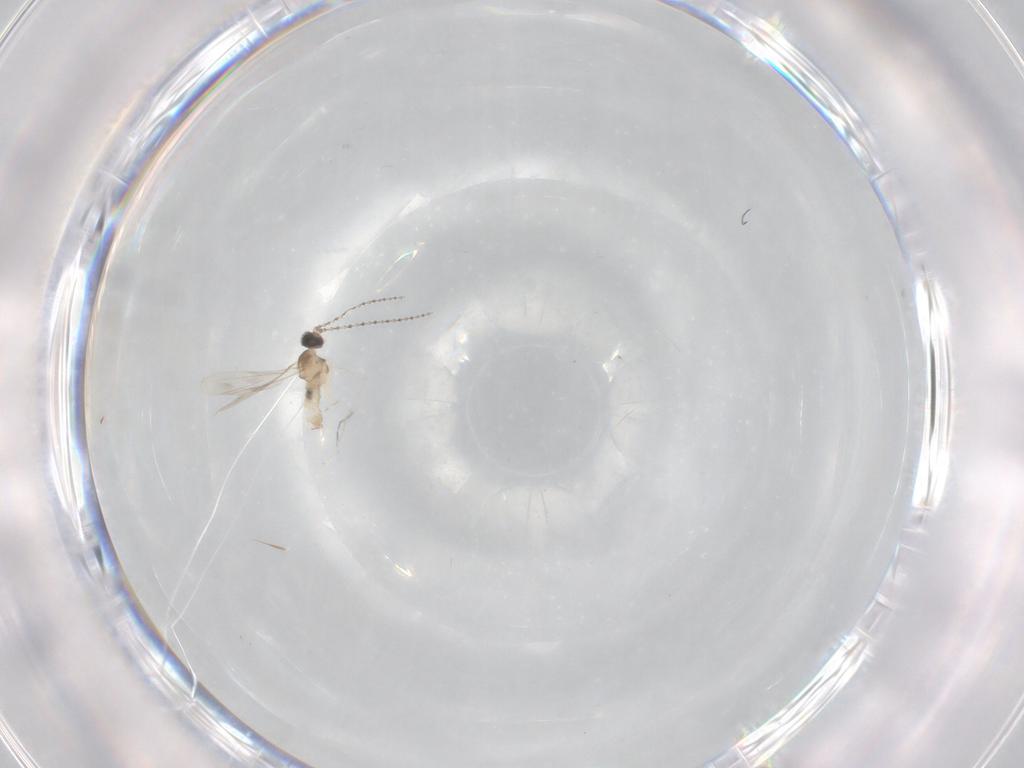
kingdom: Animalia
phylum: Arthropoda
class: Insecta
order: Diptera
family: Cecidomyiidae
